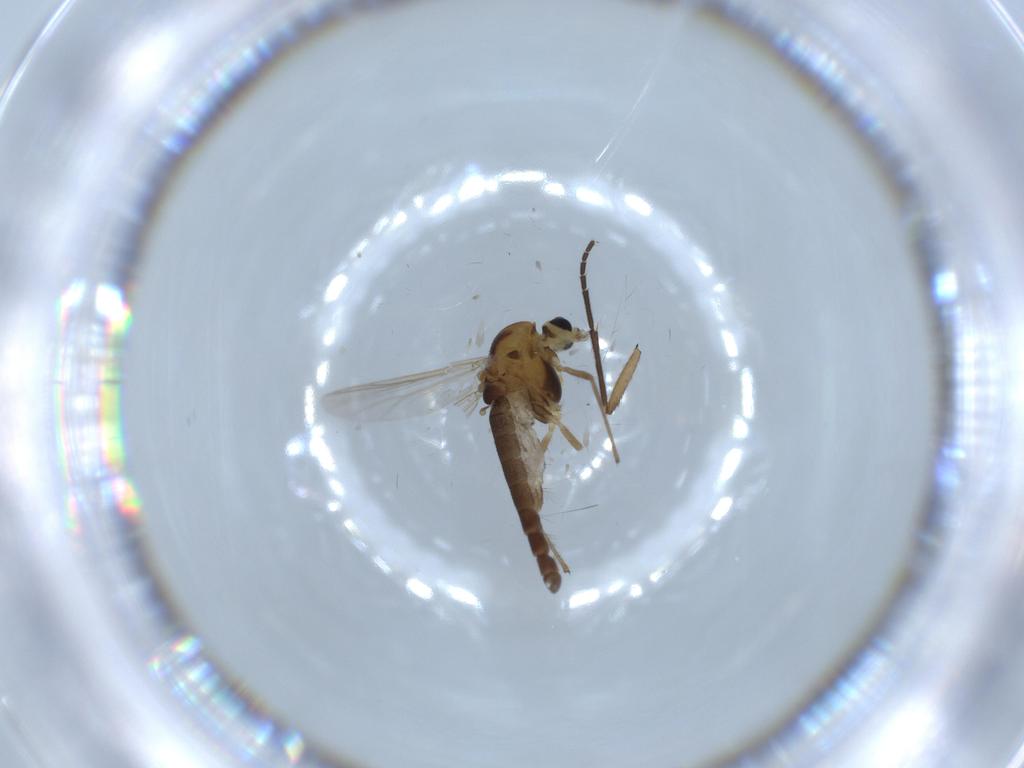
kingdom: Animalia
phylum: Arthropoda
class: Insecta
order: Diptera
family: Chironomidae
